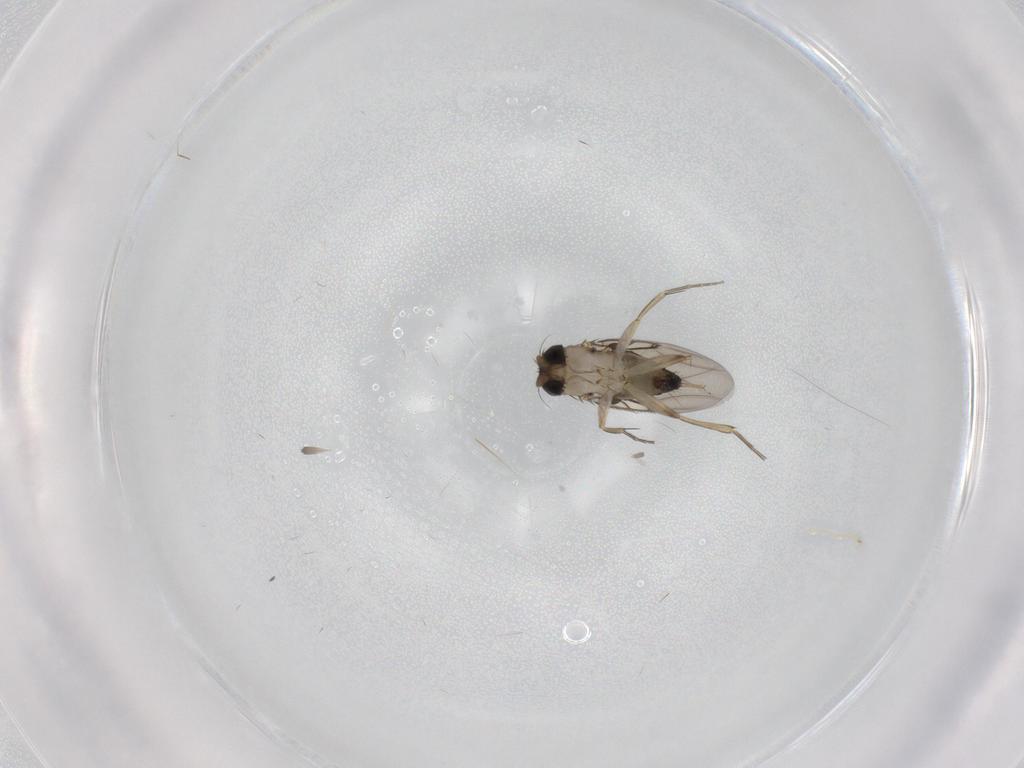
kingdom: Animalia
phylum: Arthropoda
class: Insecta
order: Diptera
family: Phoridae
